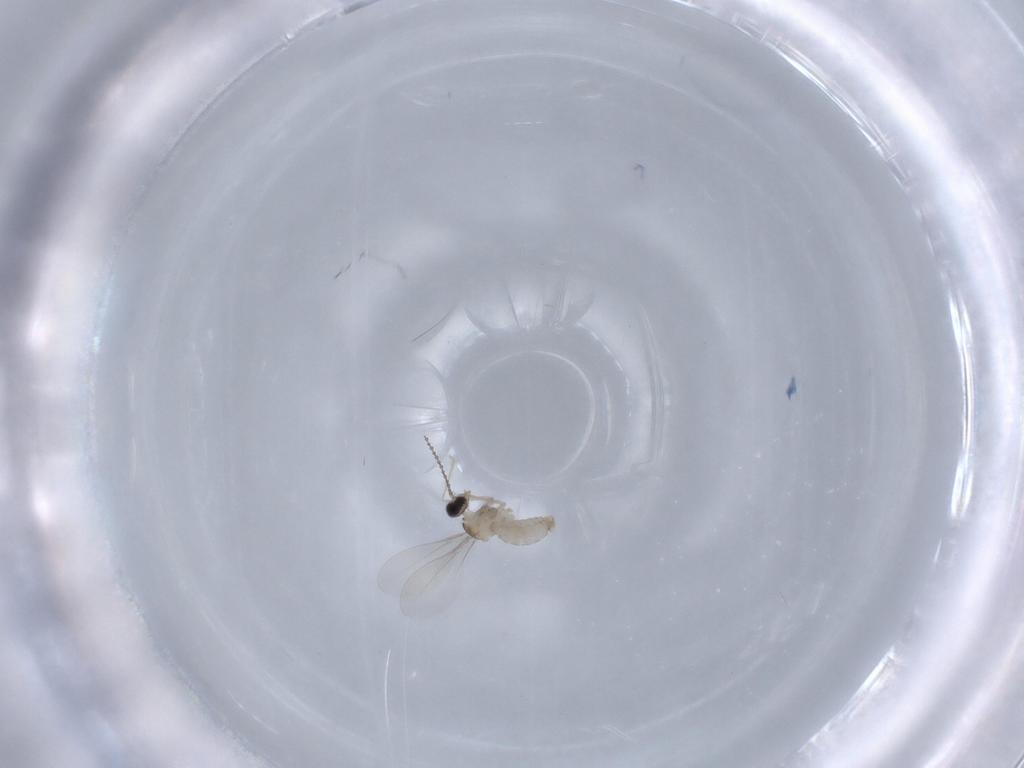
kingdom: Animalia
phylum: Arthropoda
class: Insecta
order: Diptera
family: Cecidomyiidae
